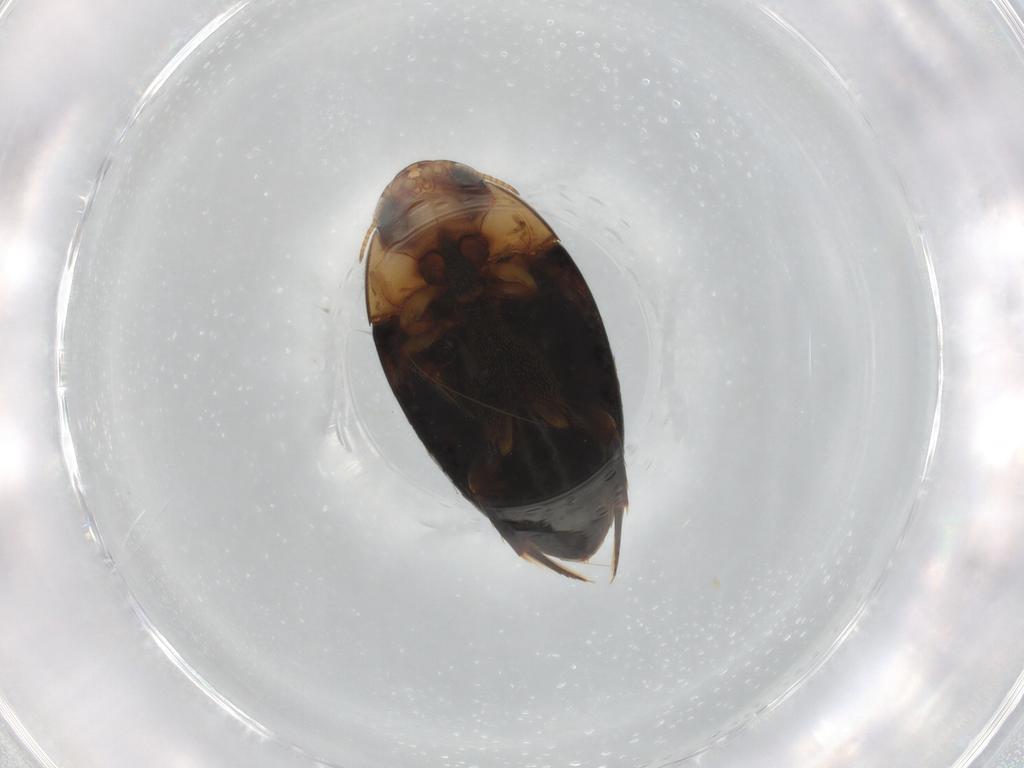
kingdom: Animalia
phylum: Arthropoda
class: Insecta
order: Coleoptera
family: Noteridae
